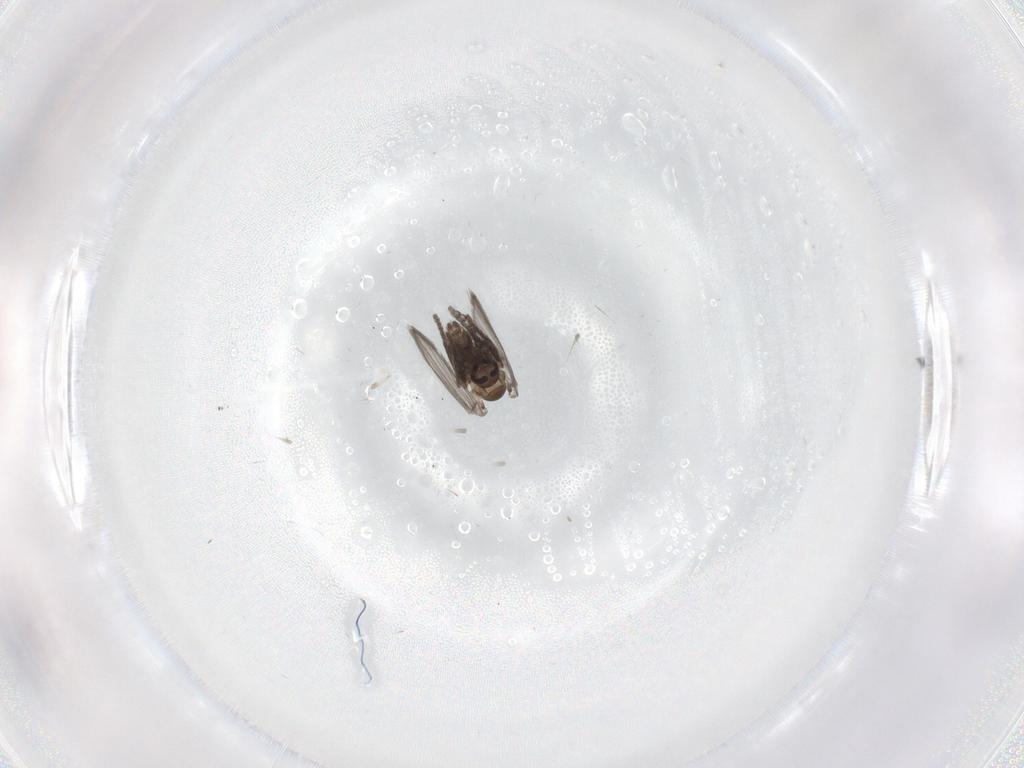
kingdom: Animalia
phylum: Arthropoda
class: Insecta
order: Diptera
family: Psychodidae
